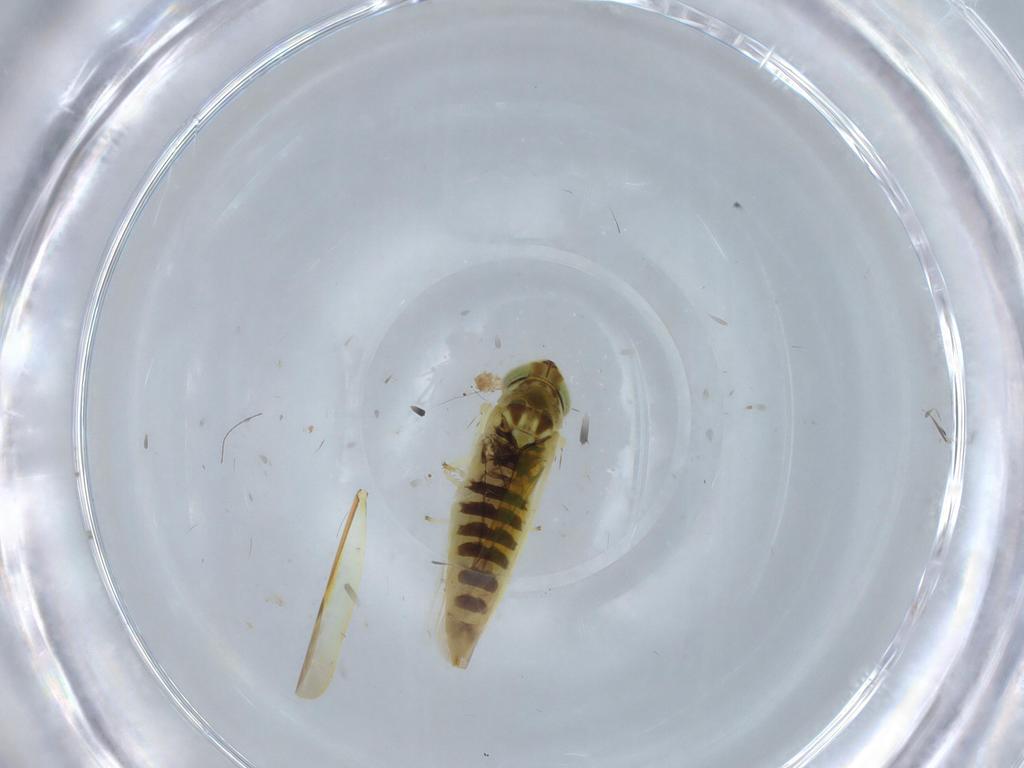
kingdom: Animalia
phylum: Arthropoda
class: Insecta
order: Hemiptera
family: Cicadellidae
